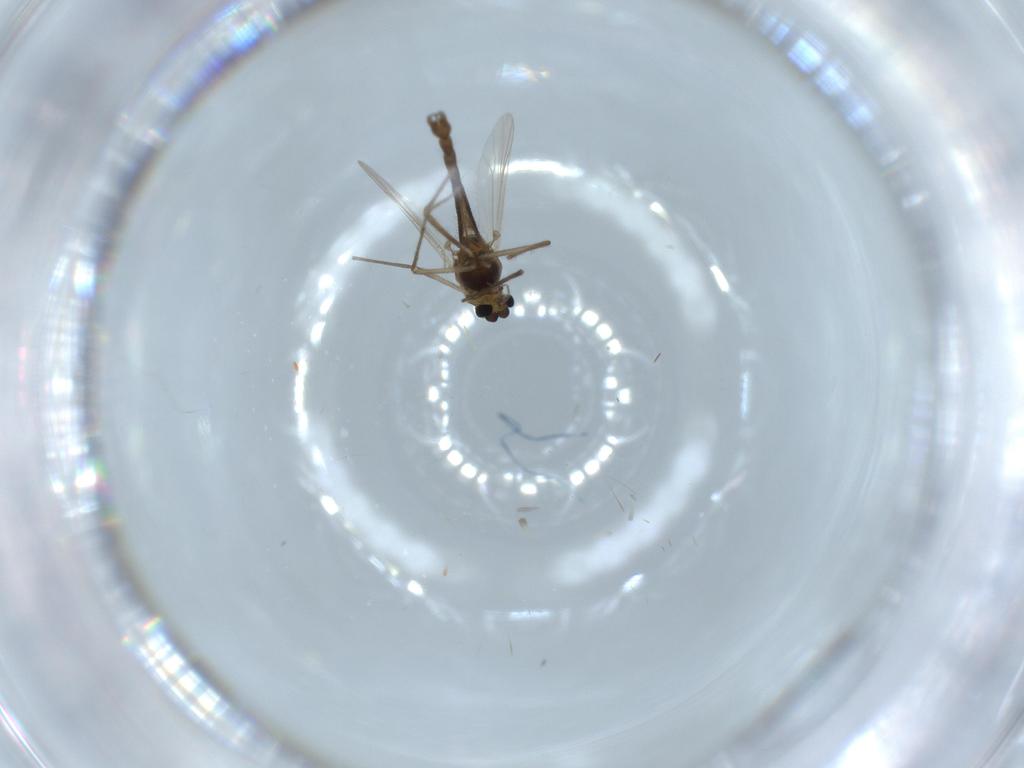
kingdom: Animalia
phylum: Arthropoda
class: Insecta
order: Diptera
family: Chironomidae
